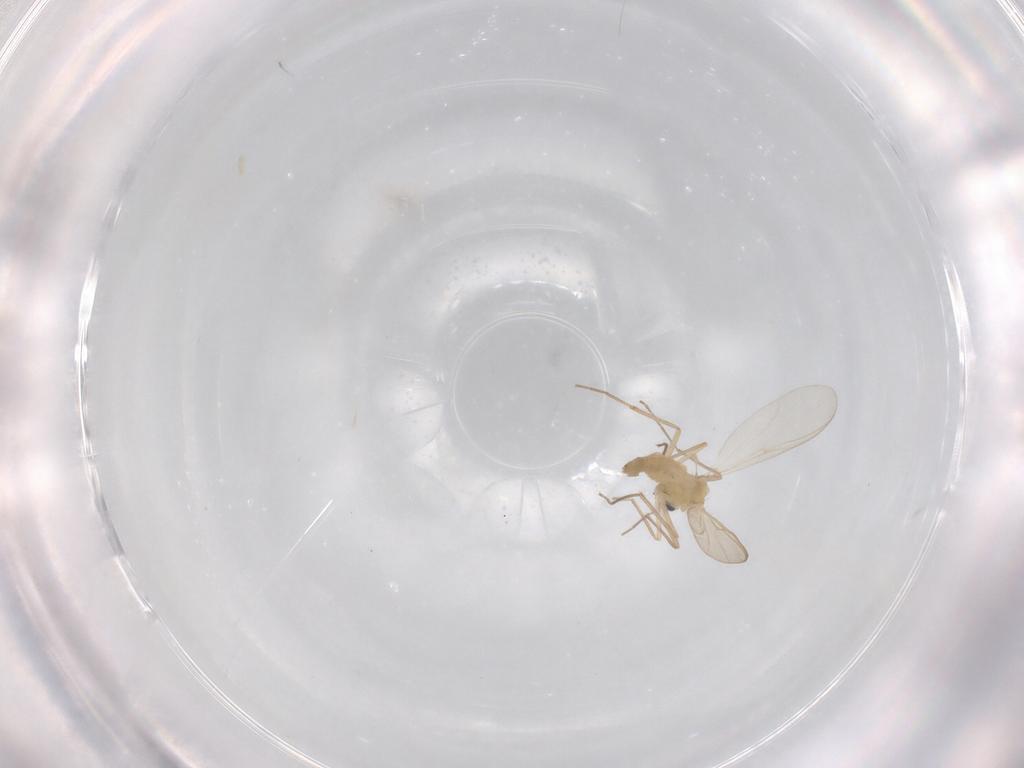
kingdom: Animalia
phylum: Arthropoda
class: Insecta
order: Diptera
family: Chironomidae
